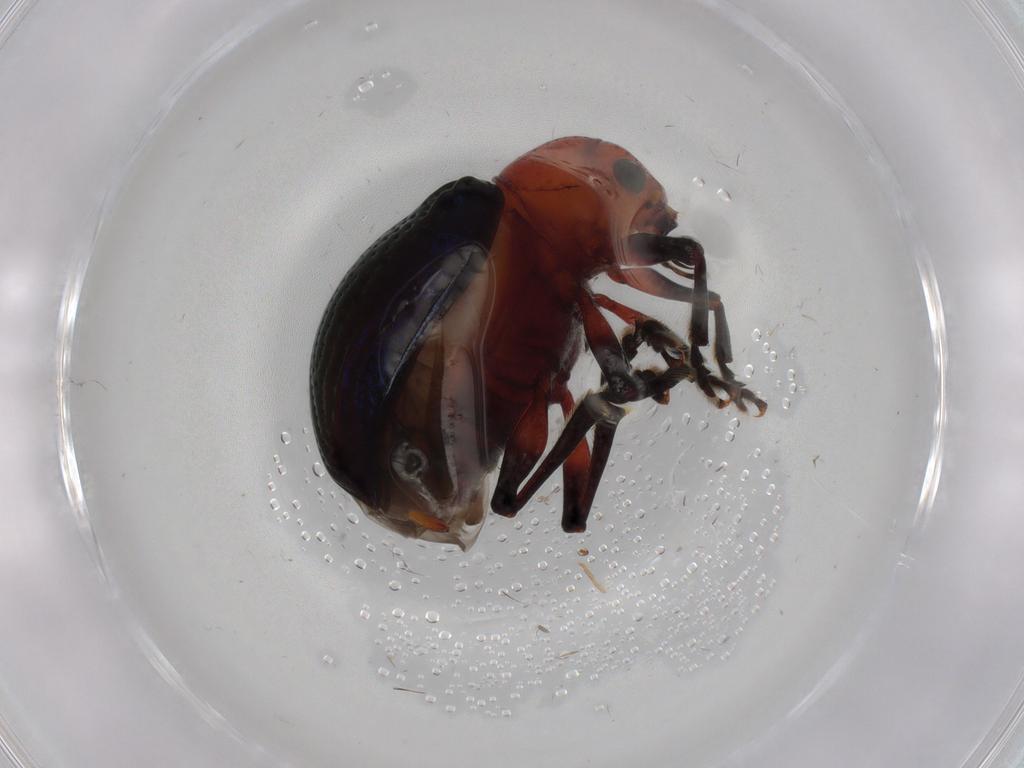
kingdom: Animalia
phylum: Arthropoda
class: Insecta
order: Coleoptera
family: Chrysomelidae
